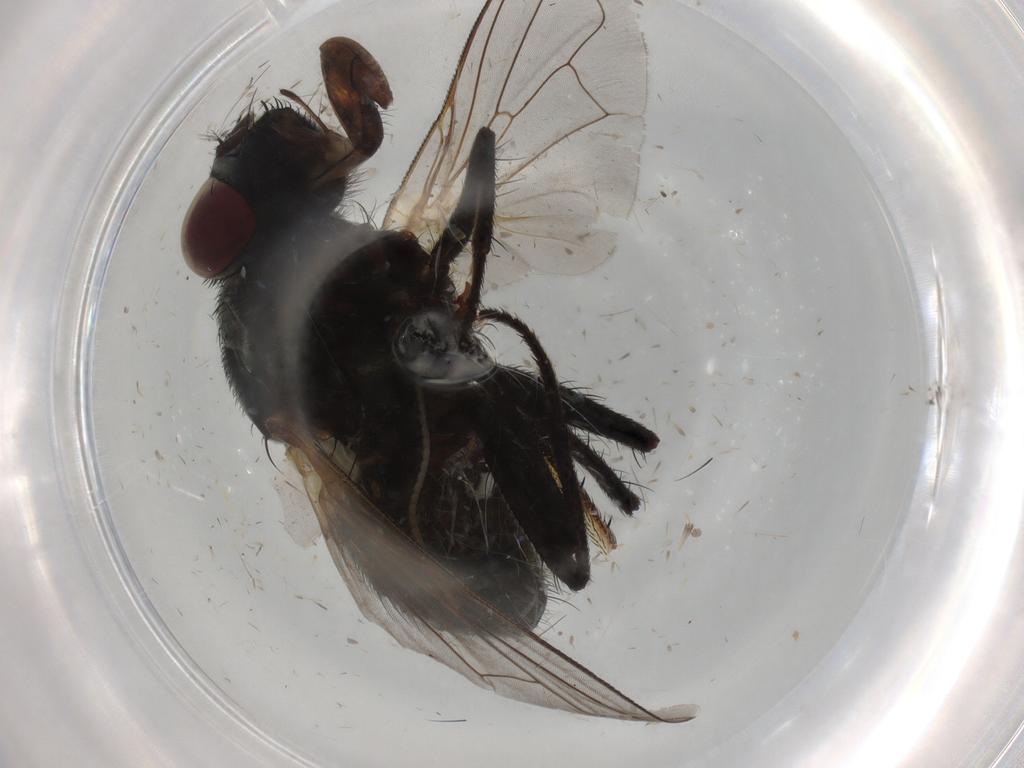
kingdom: Animalia
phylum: Arthropoda
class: Insecta
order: Diptera
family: Muscidae
